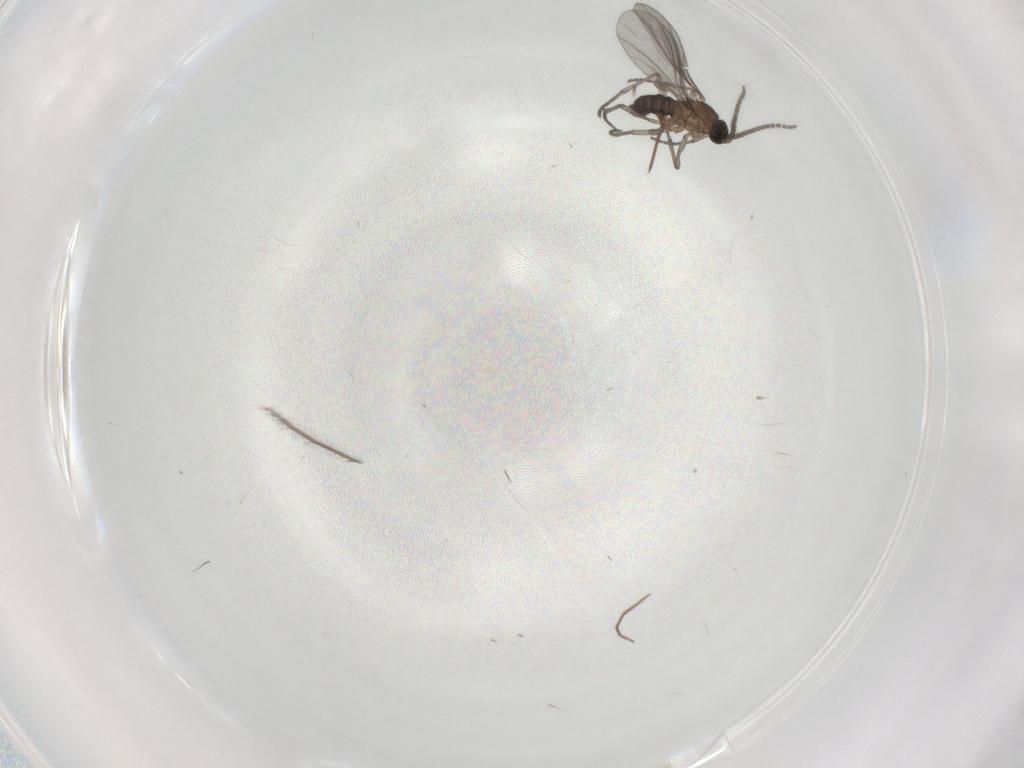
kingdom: Animalia
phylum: Arthropoda
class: Insecta
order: Diptera
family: Sciaridae
